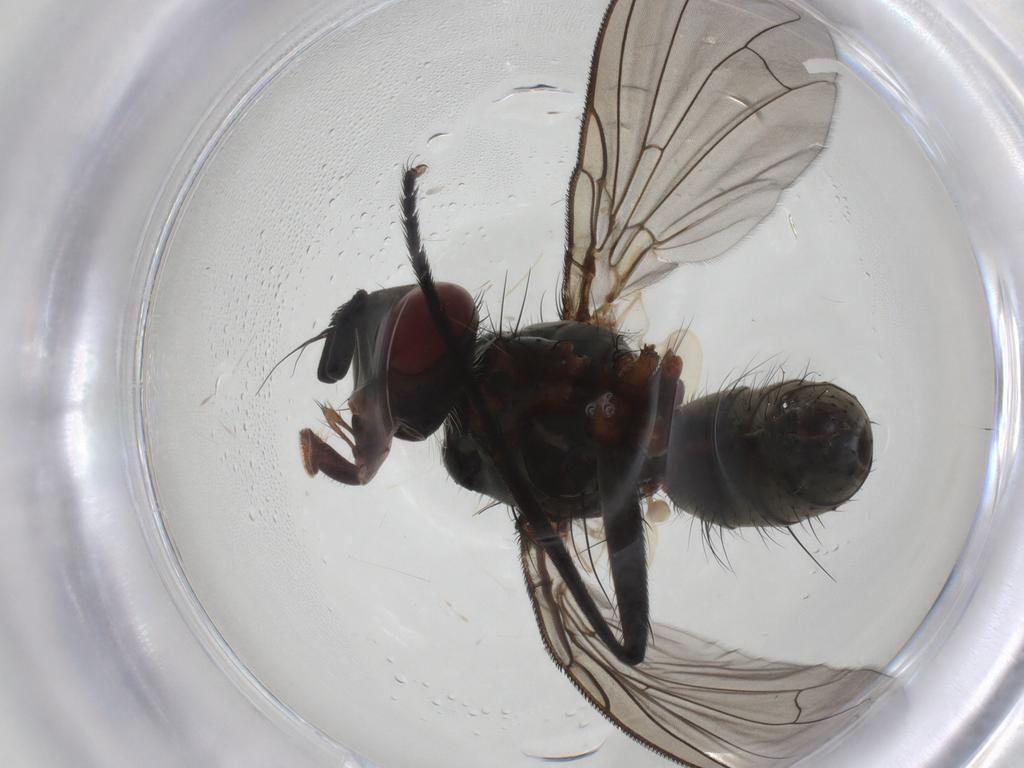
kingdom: Animalia
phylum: Arthropoda
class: Insecta
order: Diptera
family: Tachinidae
